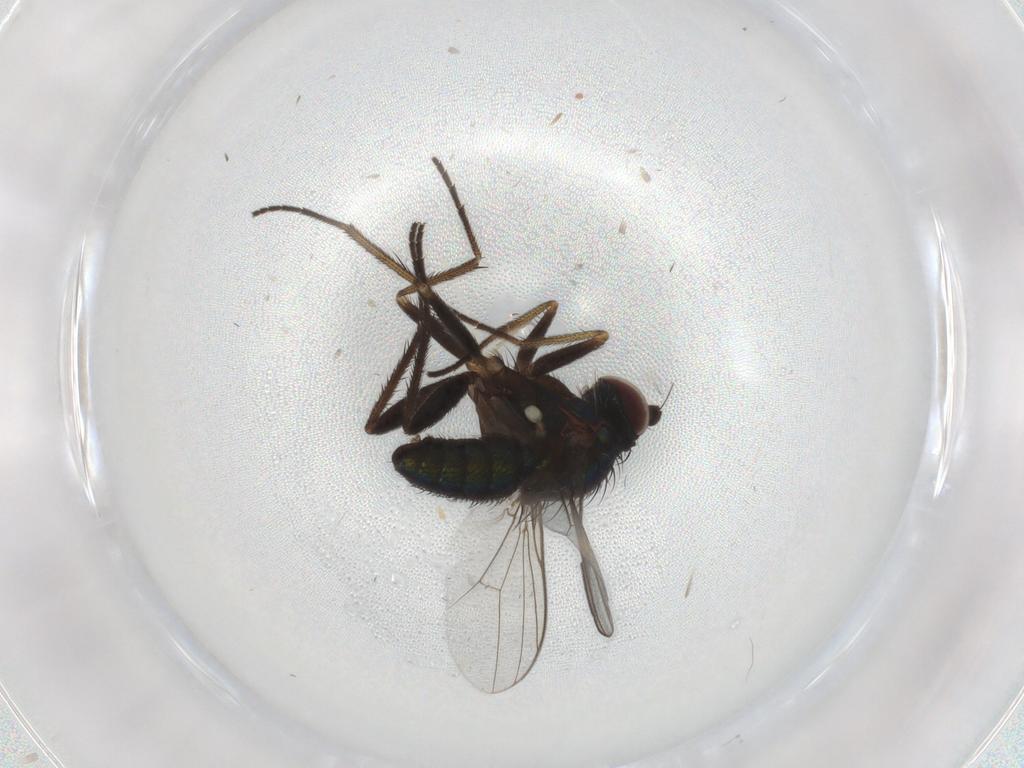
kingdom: Animalia
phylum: Arthropoda
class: Insecta
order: Diptera
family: Dolichopodidae
